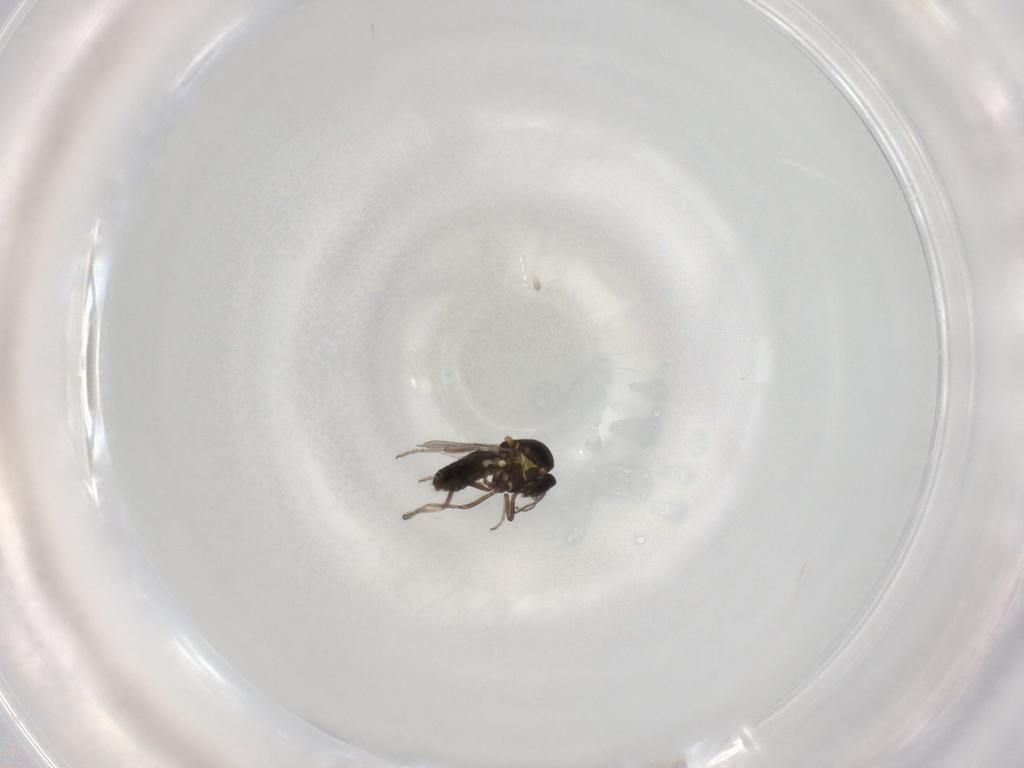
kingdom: Animalia
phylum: Arthropoda
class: Insecta
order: Diptera
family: Ceratopogonidae
